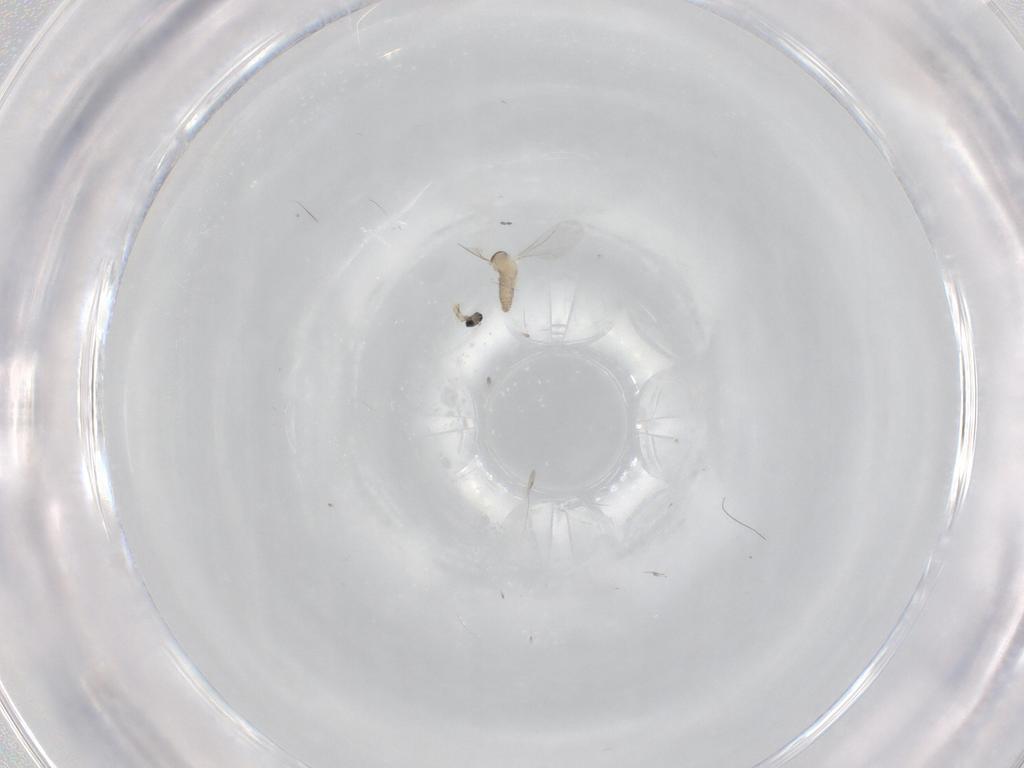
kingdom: Animalia
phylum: Arthropoda
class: Insecta
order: Diptera
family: Cecidomyiidae
